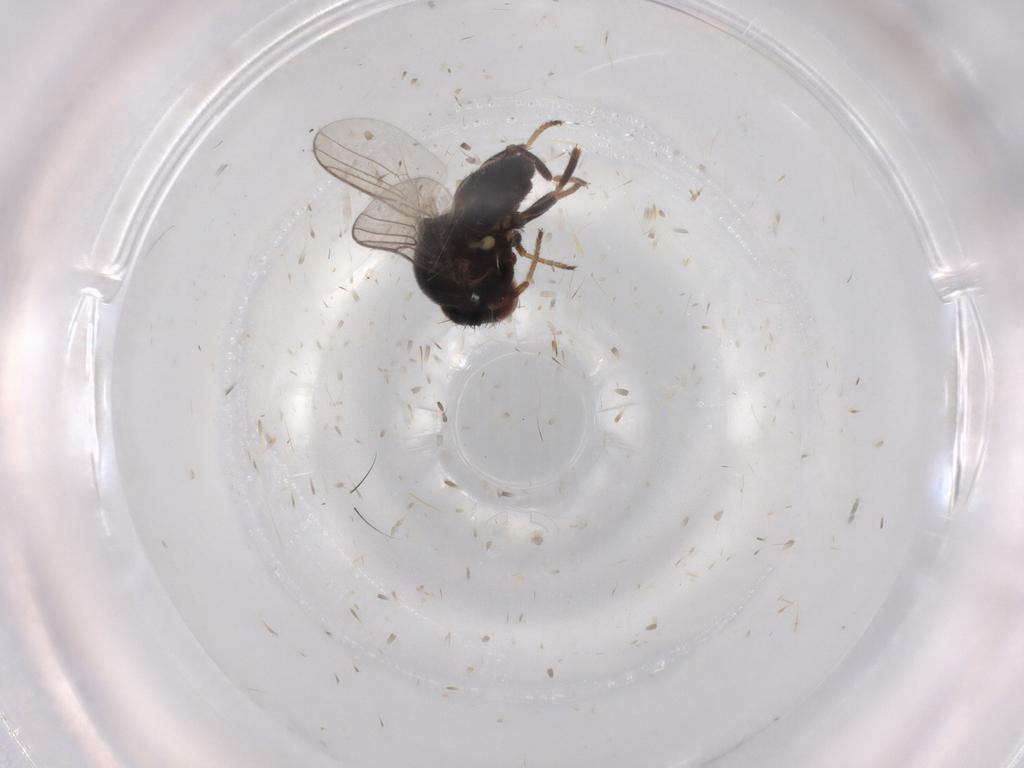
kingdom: Animalia
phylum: Arthropoda
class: Insecta
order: Diptera
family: Chloropidae
